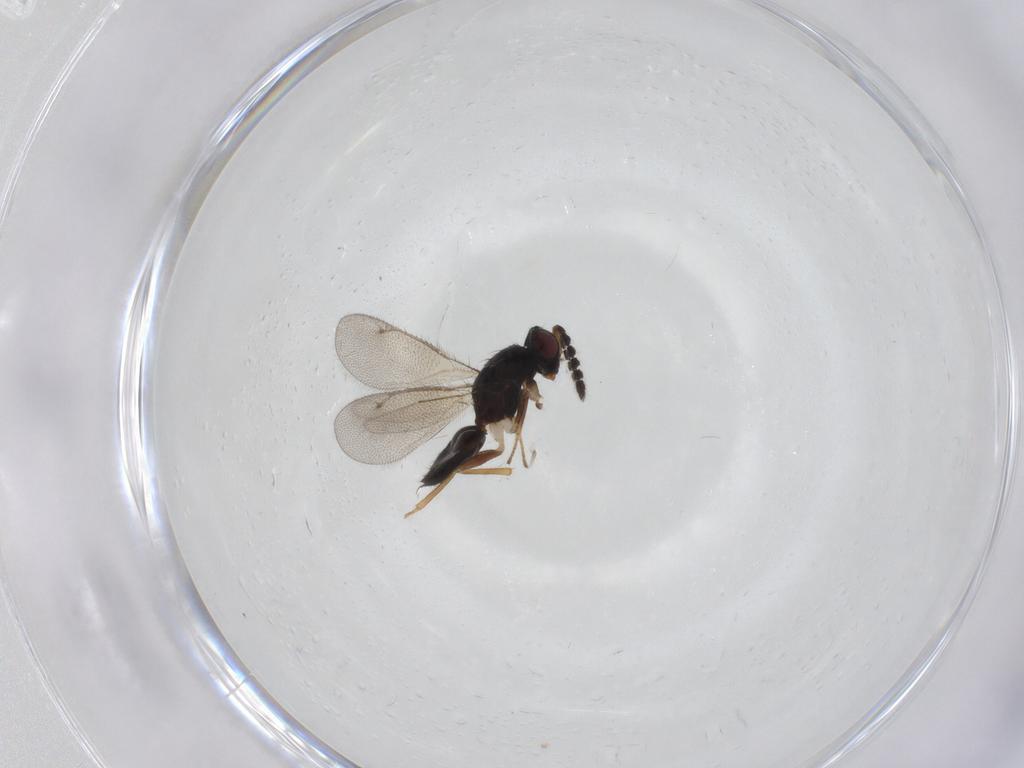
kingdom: Animalia
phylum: Arthropoda
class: Insecta
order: Hymenoptera
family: Eulophidae
